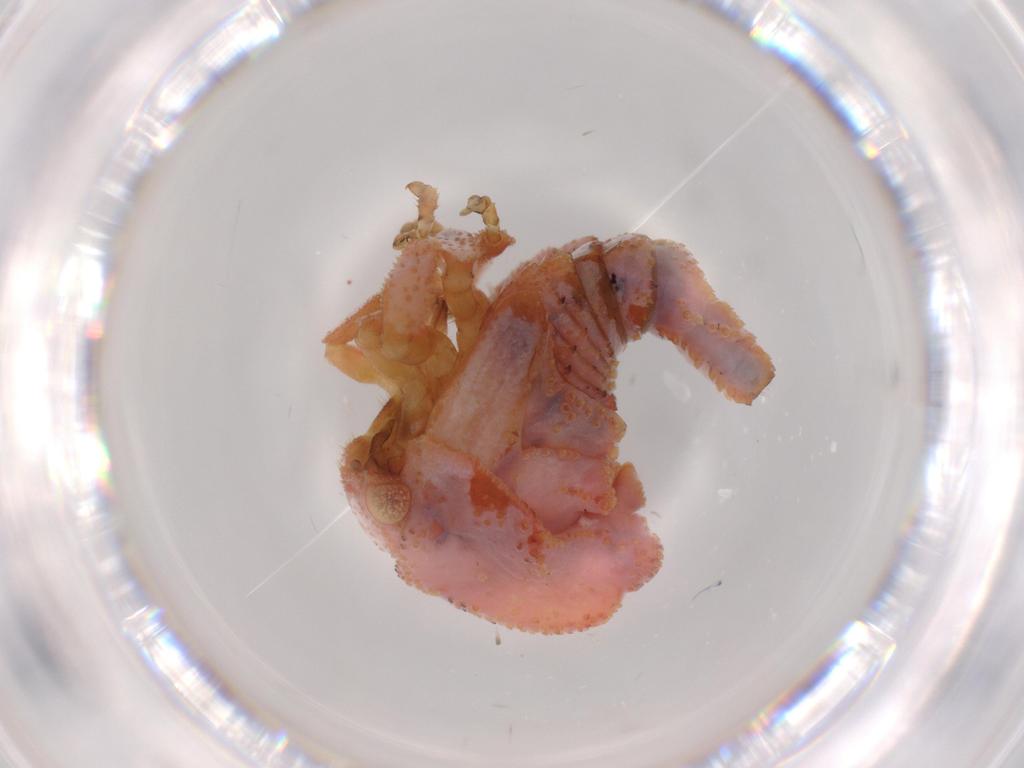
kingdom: Animalia
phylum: Arthropoda
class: Insecta
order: Hemiptera
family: Membracidae
